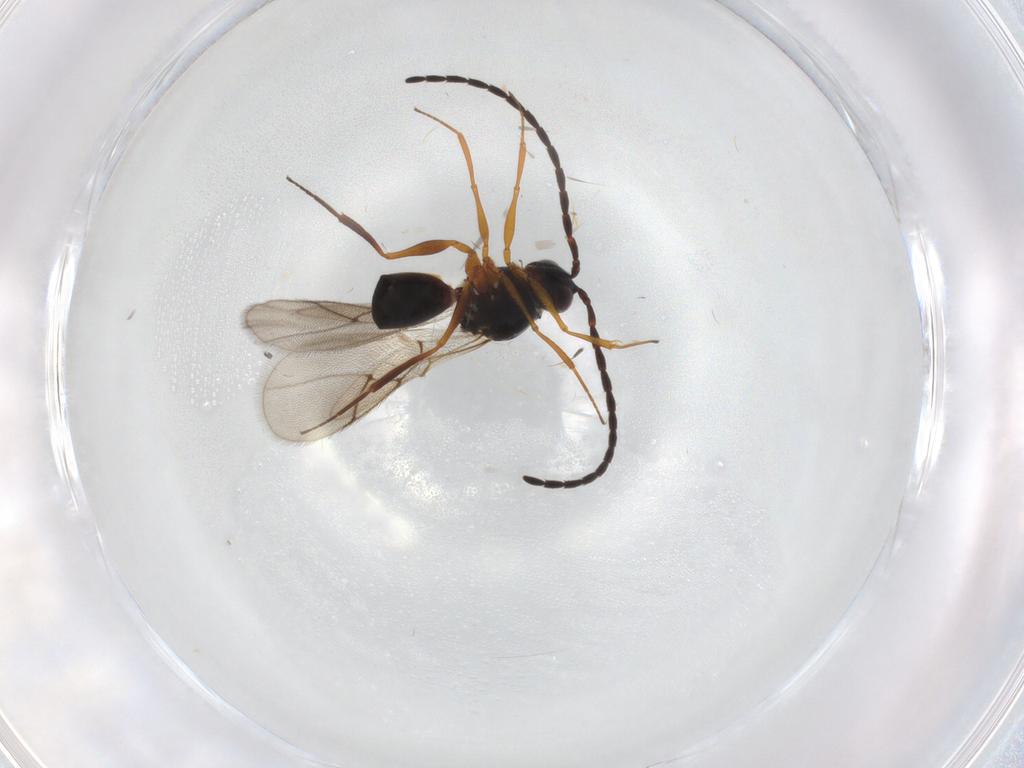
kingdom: Animalia
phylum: Arthropoda
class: Insecta
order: Hymenoptera
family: Figitidae
